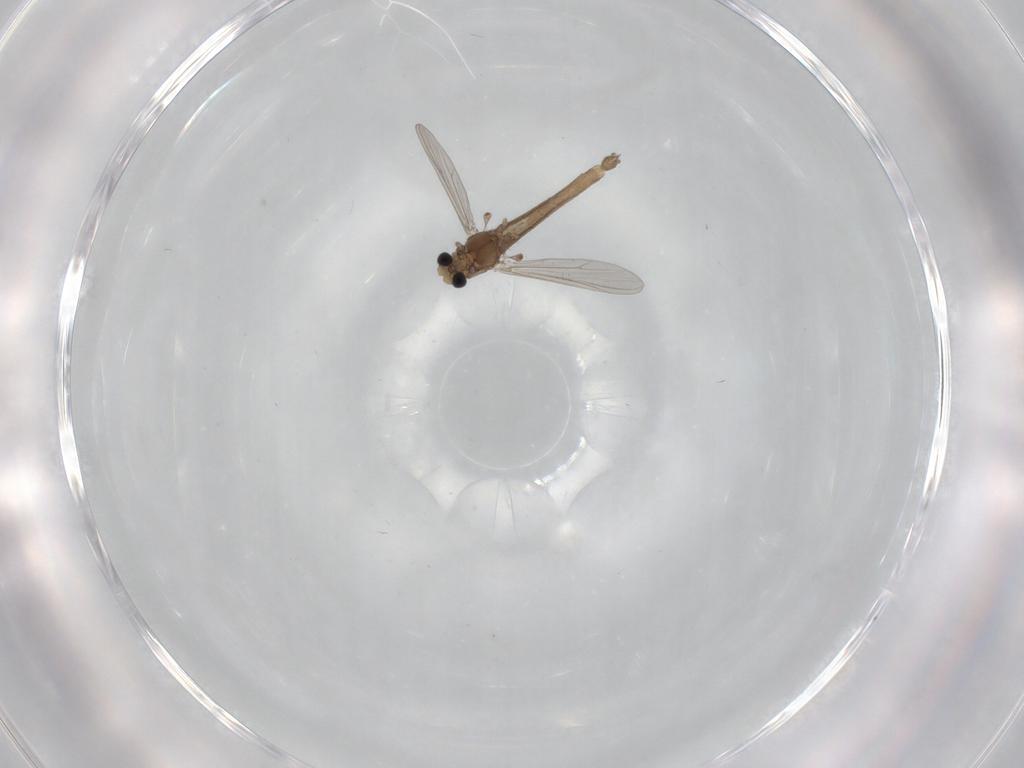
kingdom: Animalia
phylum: Arthropoda
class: Insecta
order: Diptera
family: Chironomidae
